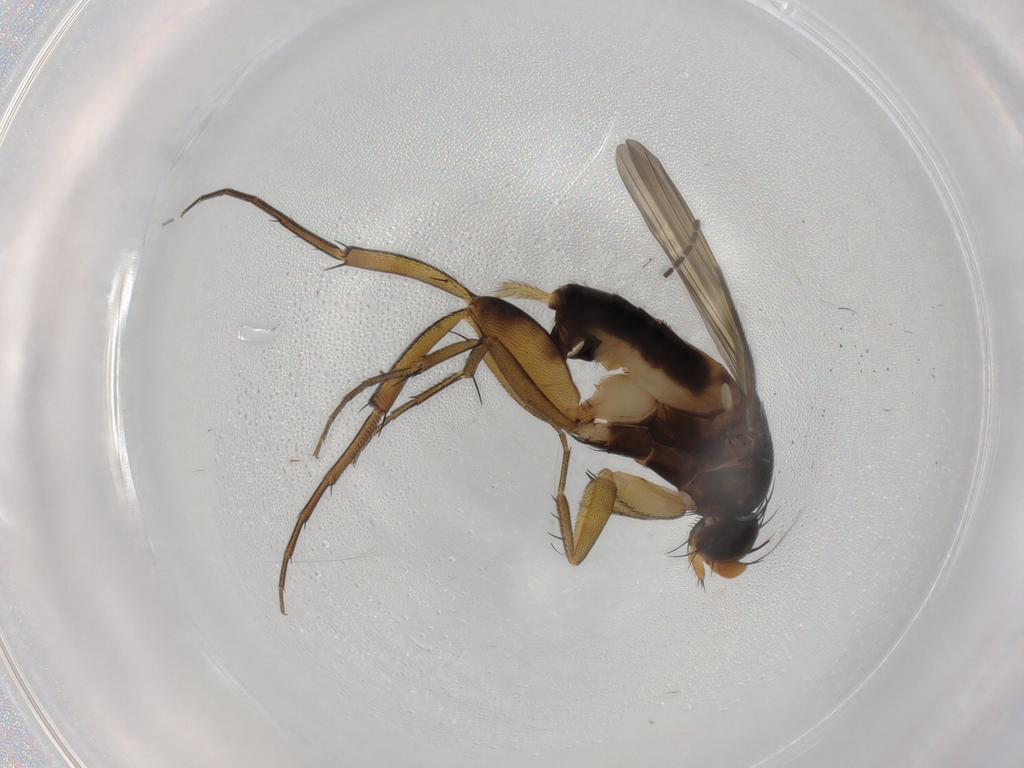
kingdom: Animalia
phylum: Arthropoda
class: Insecta
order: Diptera
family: Phoridae
